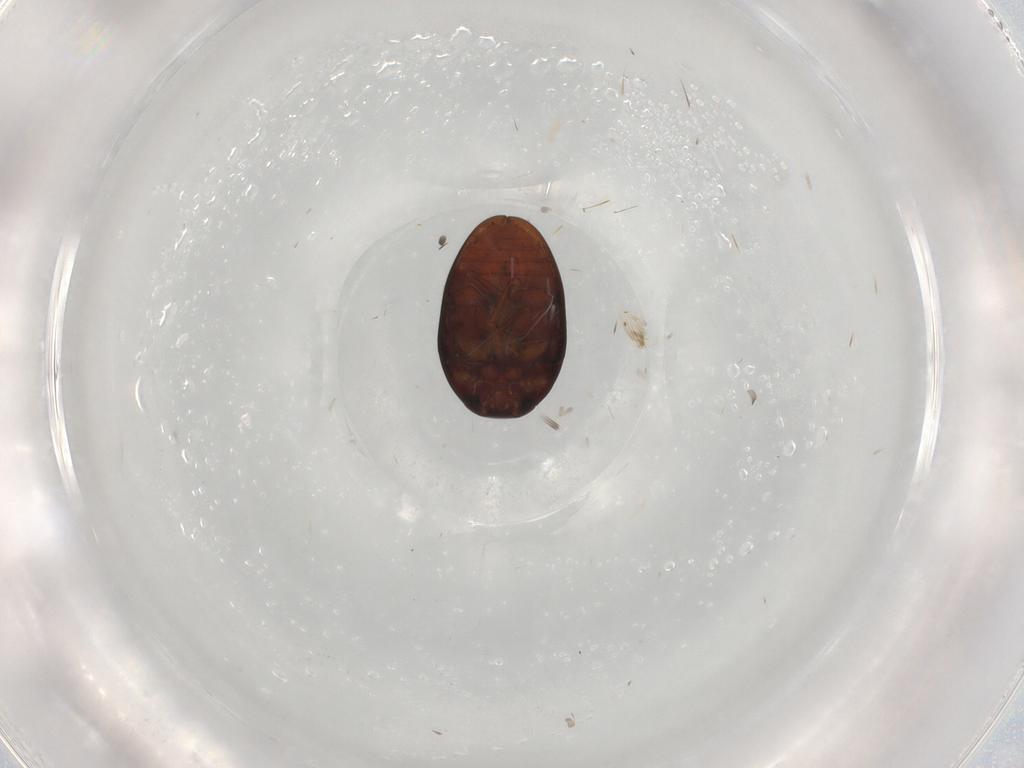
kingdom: Animalia
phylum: Arthropoda
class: Insecta
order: Coleoptera
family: Phalacridae
